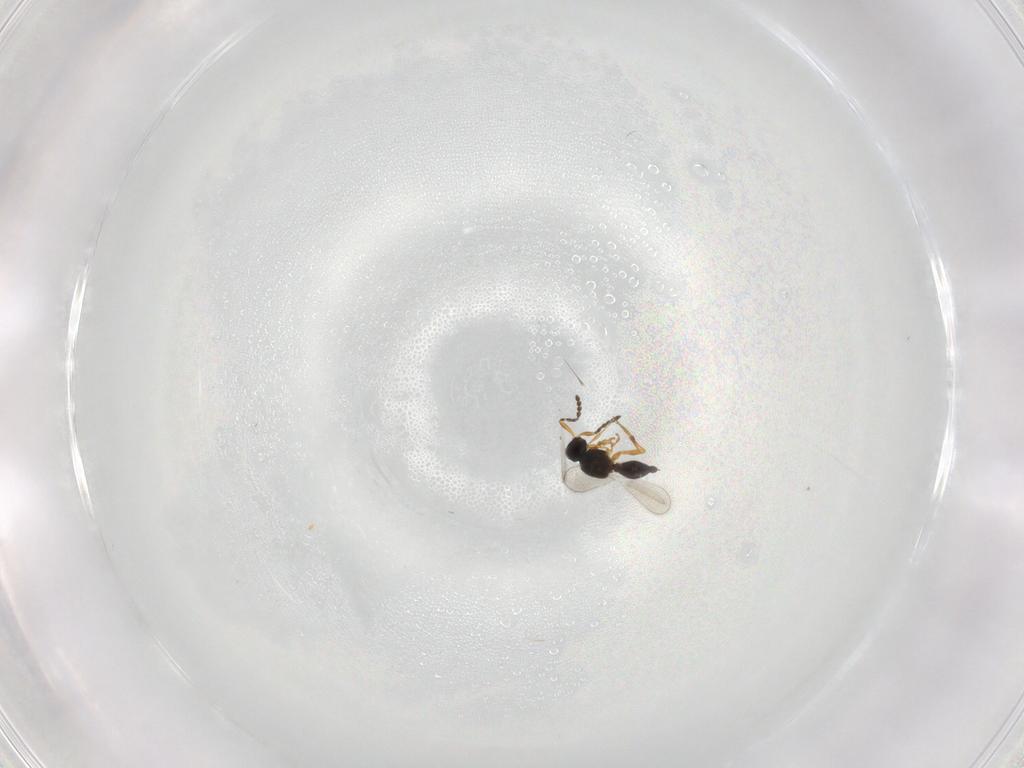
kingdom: Animalia
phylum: Arthropoda
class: Insecta
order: Hymenoptera
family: Platygastridae
